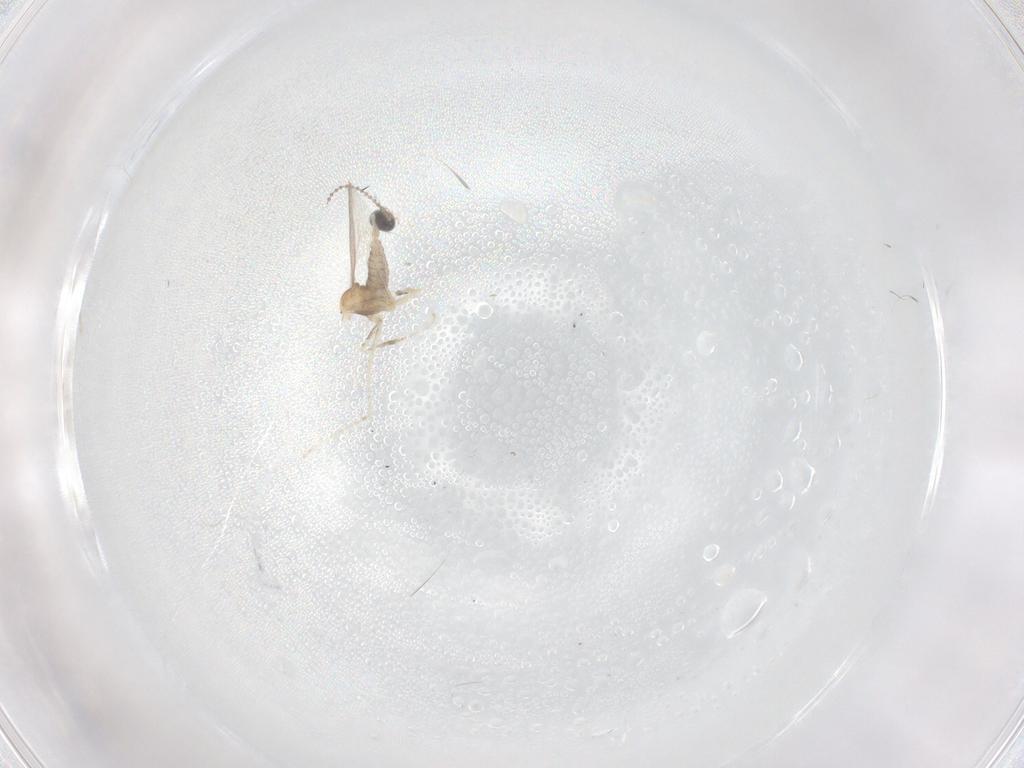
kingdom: Animalia
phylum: Arthropoda
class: Insecta
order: Diptera
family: Cecidomyiidae
